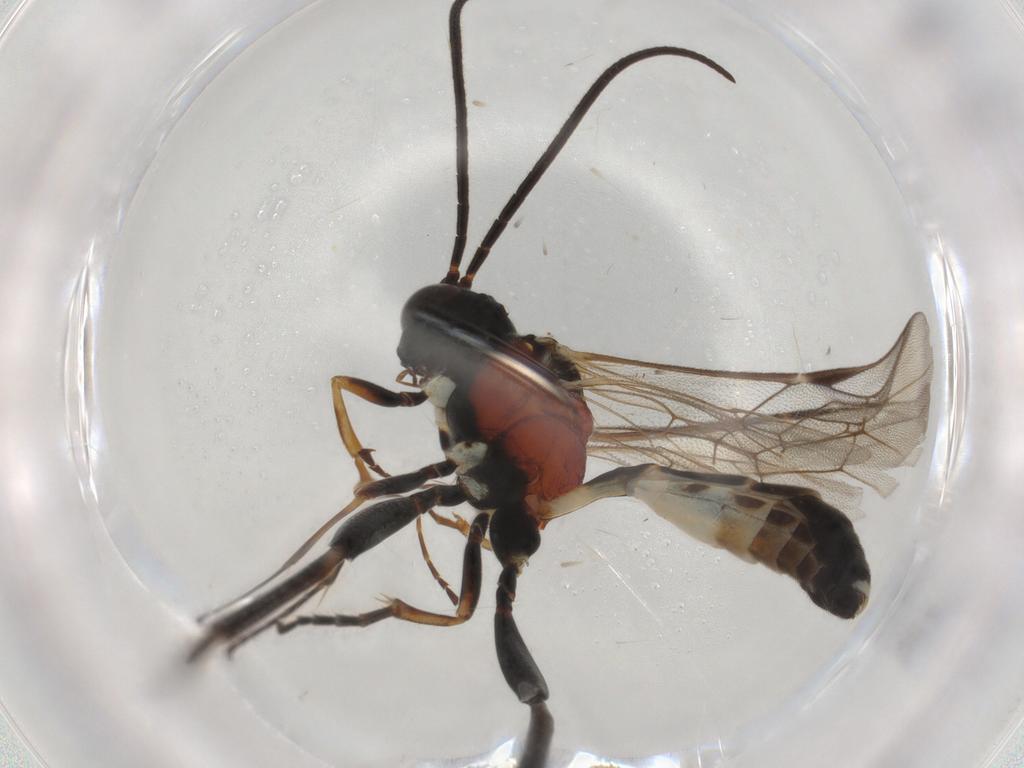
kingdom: Animalia
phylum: Arthropoda
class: Insecta
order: Hymenoptera
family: Ichneumonidae
